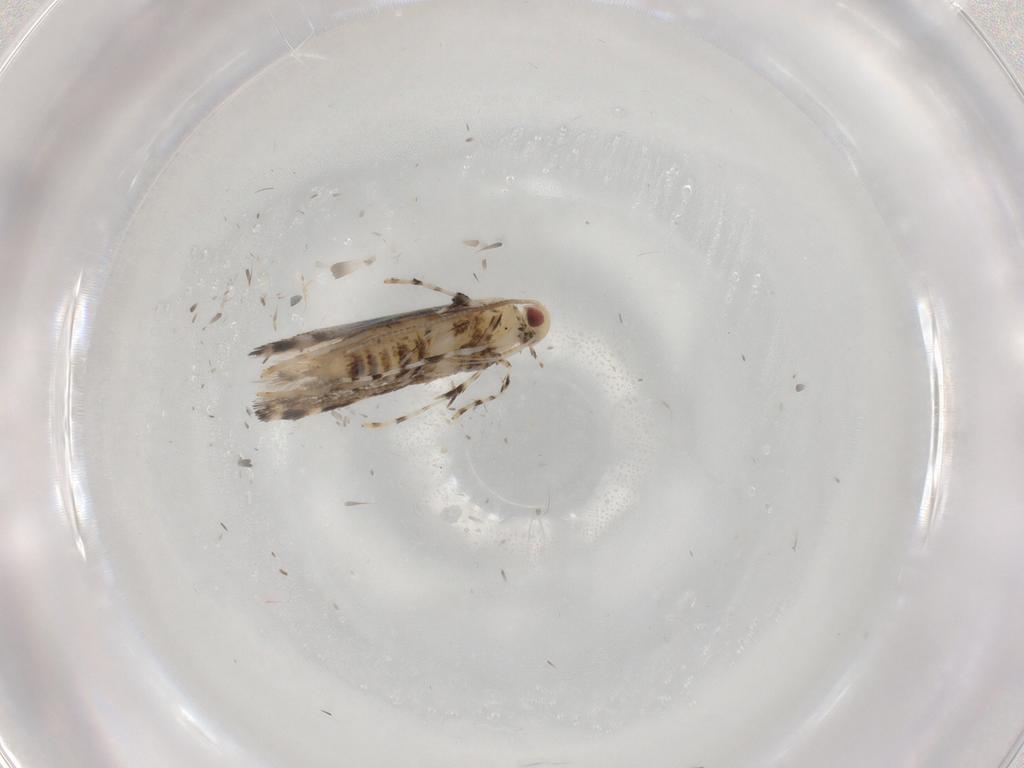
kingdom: Animalia
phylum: Arthropoda
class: Insecta
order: Lepidoptera
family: Gracillariidae
